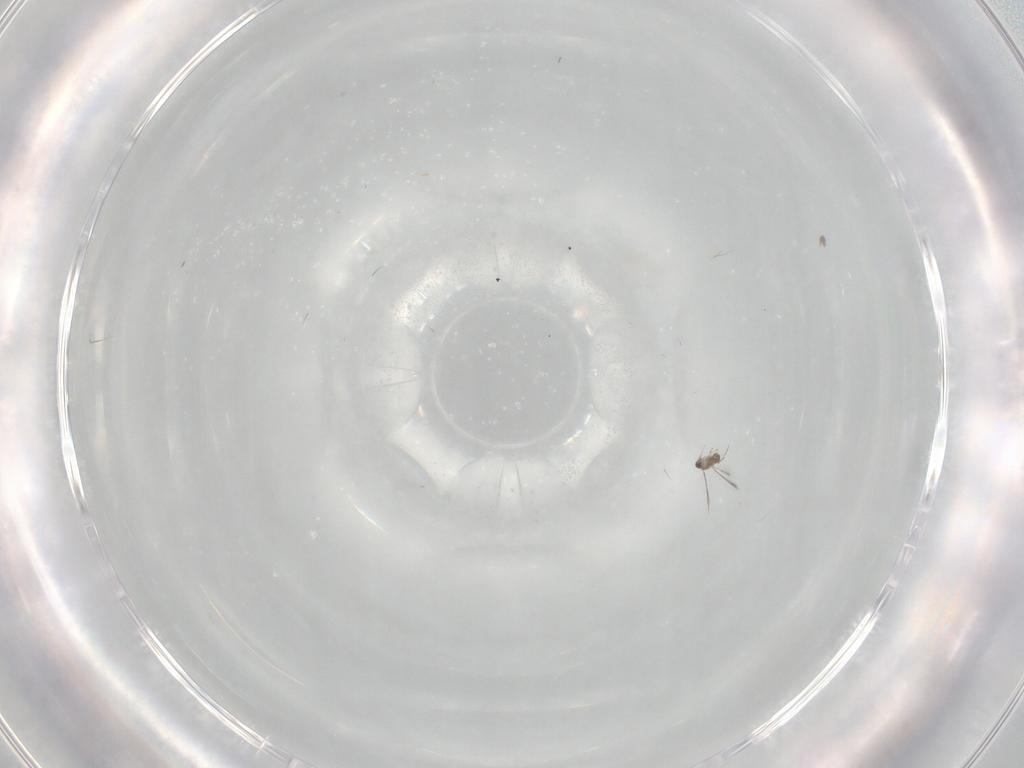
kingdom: Animalia
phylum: Arthropoda
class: Insecta
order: Hymenoptera
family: Mymaridae
